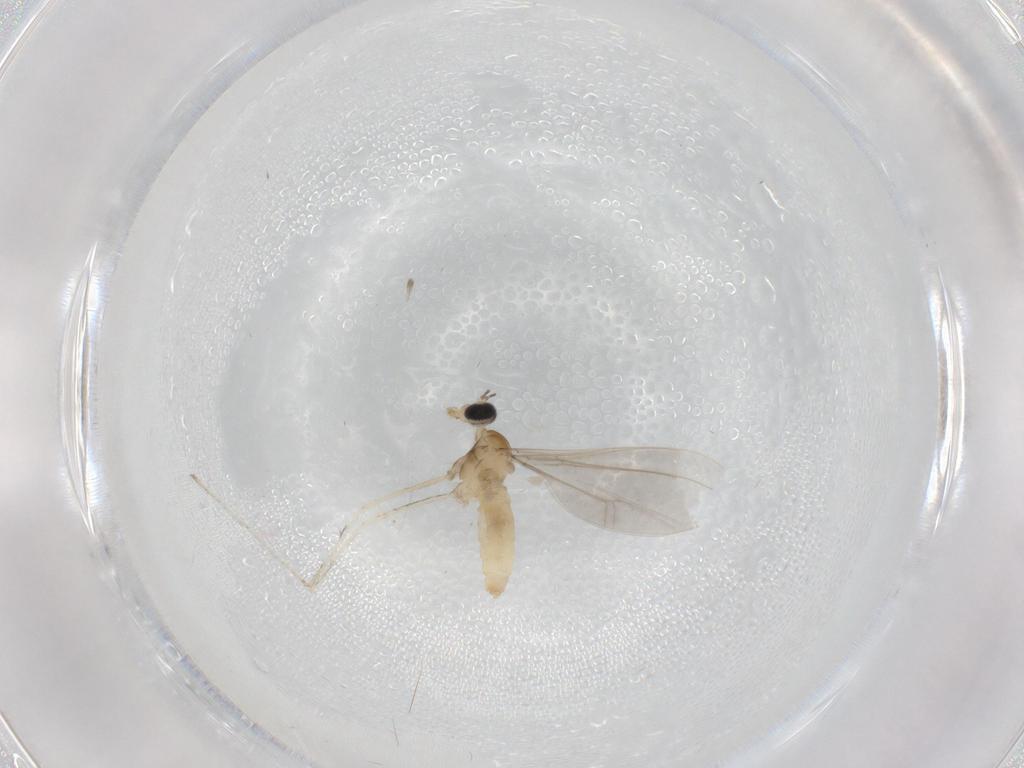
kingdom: Animalia
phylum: Arthropoda
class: Insecta
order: Diptera
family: Cecidomyiidae
